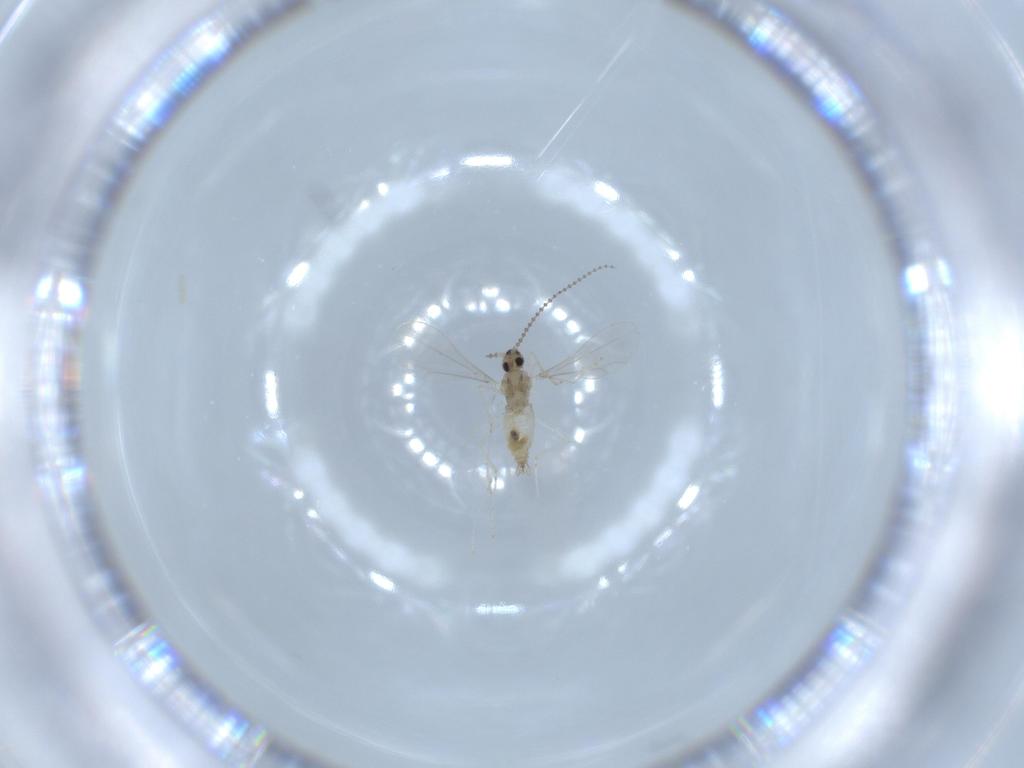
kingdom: Animalia
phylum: Arthropoda
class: Insecta
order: Diptera
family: Cecidomyiidae
